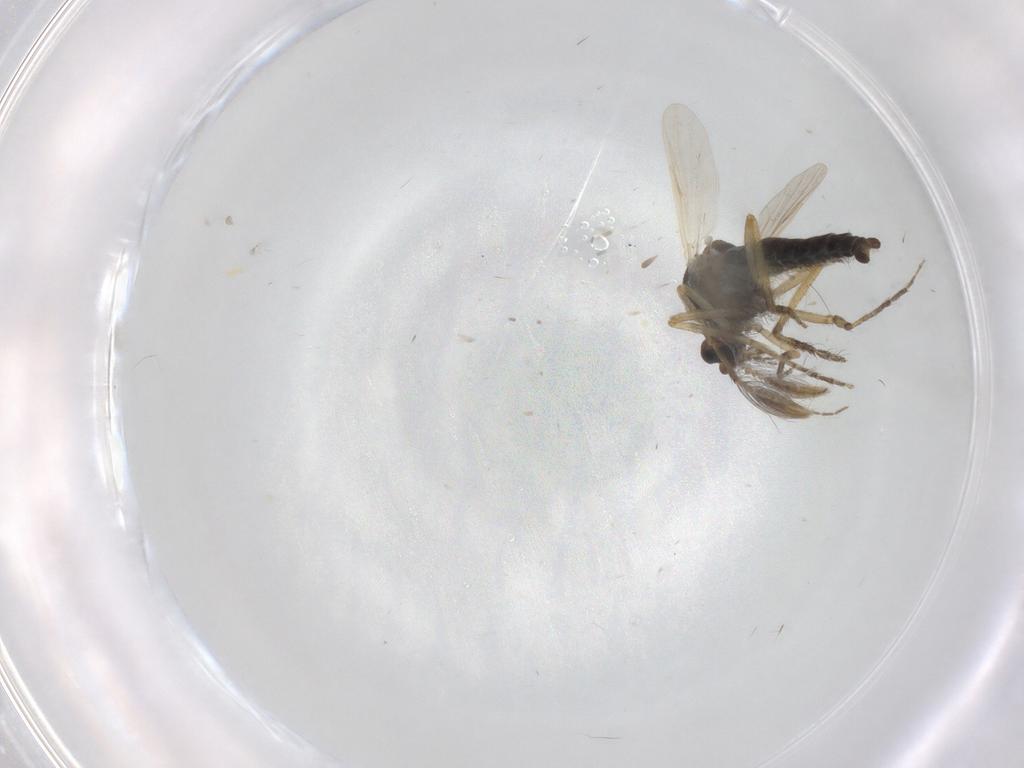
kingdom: Animalia
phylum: Arthropoda
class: Insecta
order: Diptera
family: Ceratopogonidae
